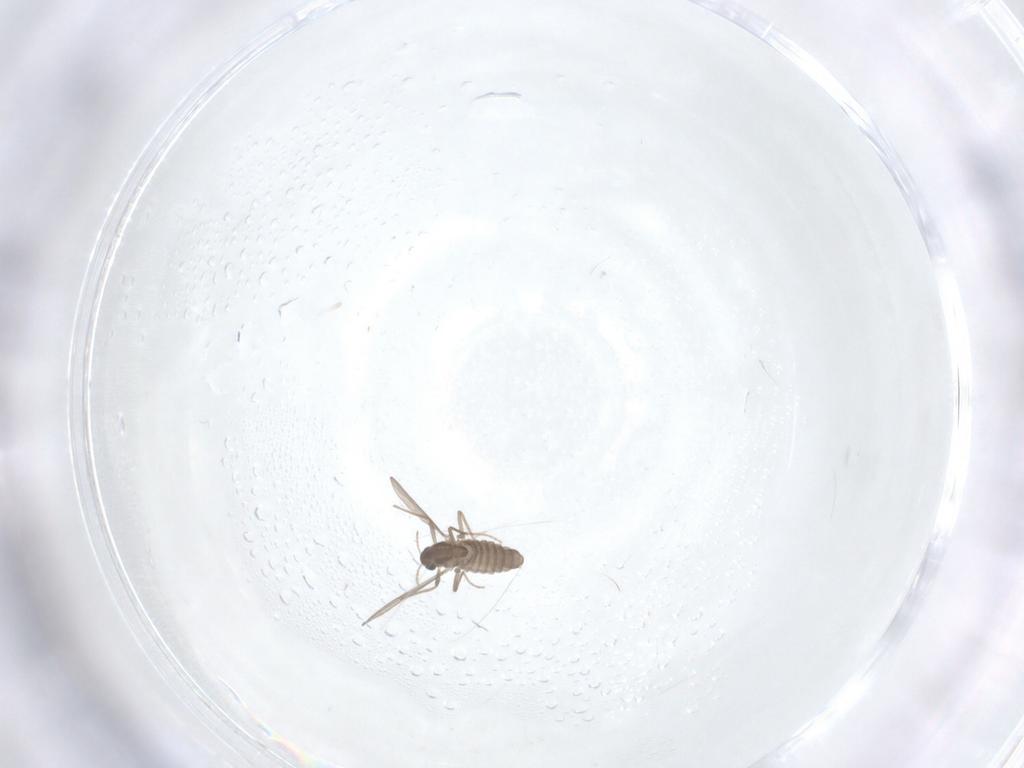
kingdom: Animalia
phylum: Arthropoda
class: Insecta
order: Diptera
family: Chironomidae
